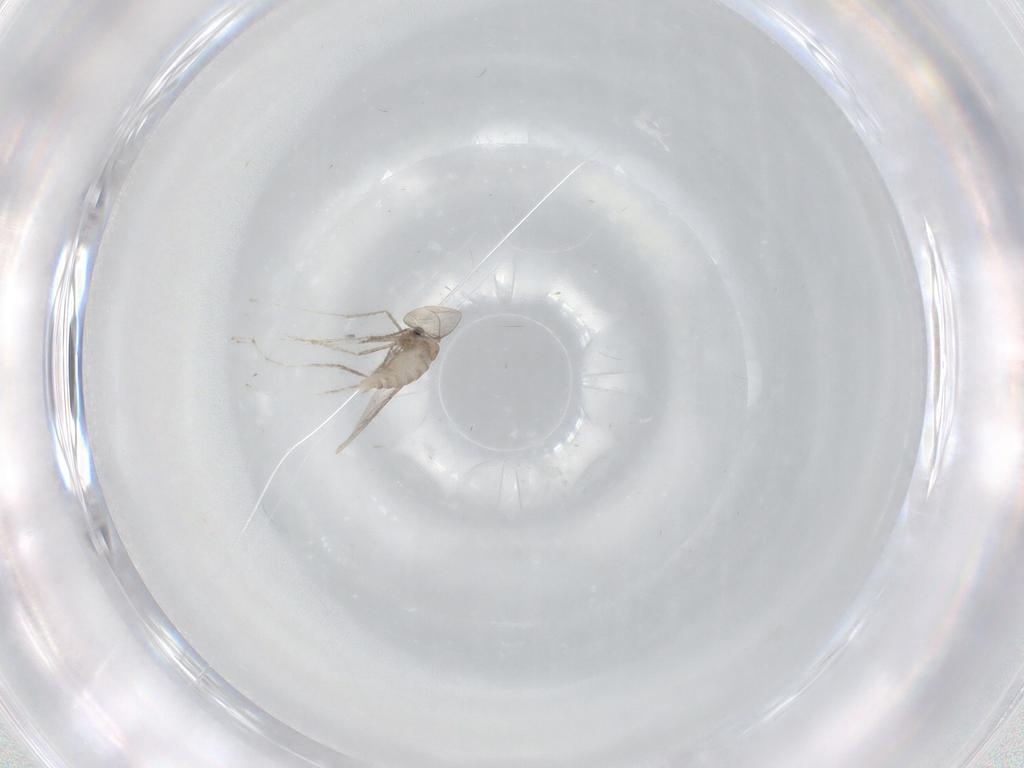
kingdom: Animalia
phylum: Arthropoda
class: Insecta
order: Diptera
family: Cecidomyiidae
